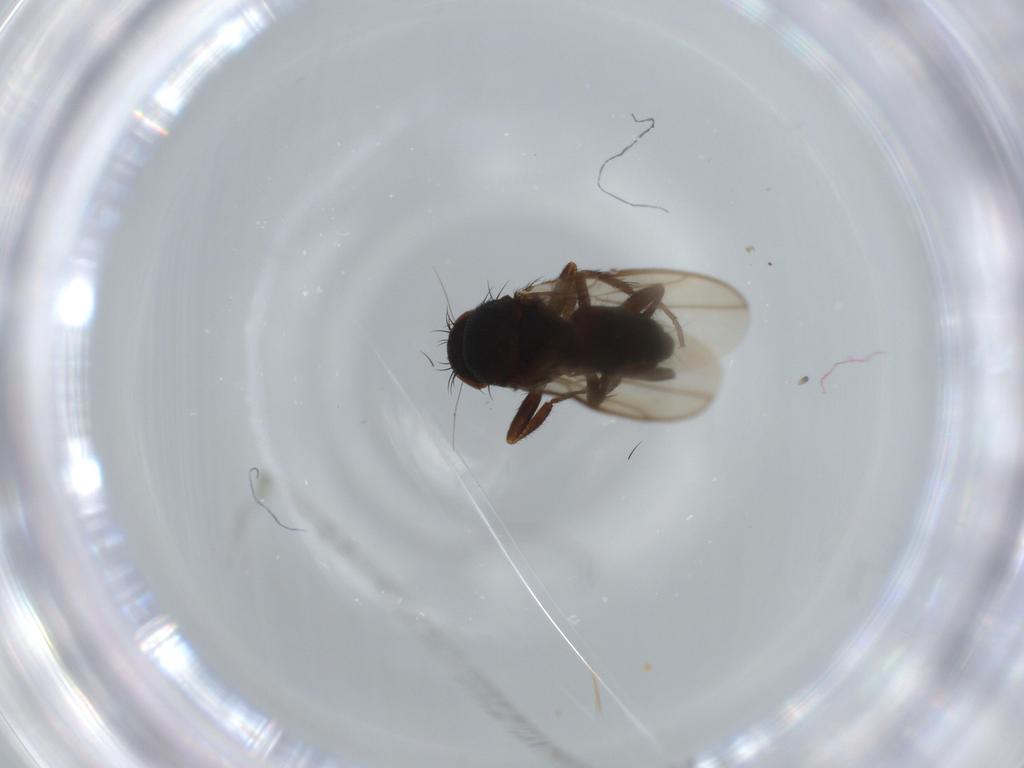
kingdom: Animalia
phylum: Arthropoda
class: Insecta
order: Diptera
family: Sphaeroceridae
